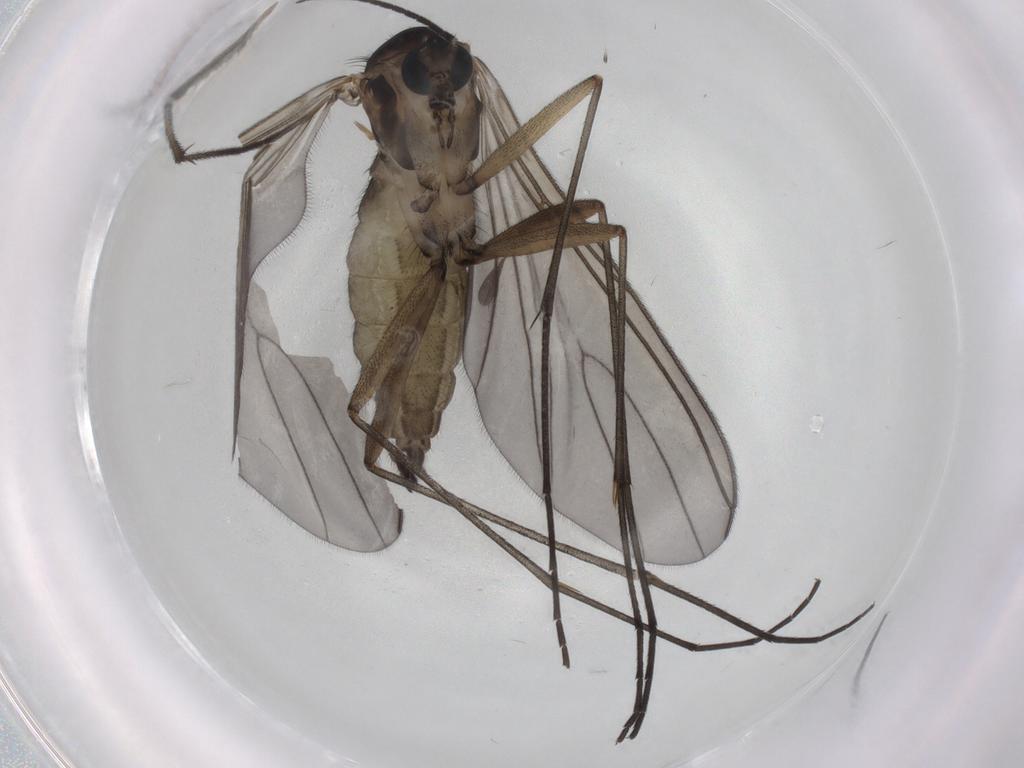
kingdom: Animalia
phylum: Arthropoda
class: Insecta
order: Diptera
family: Sciaridae
